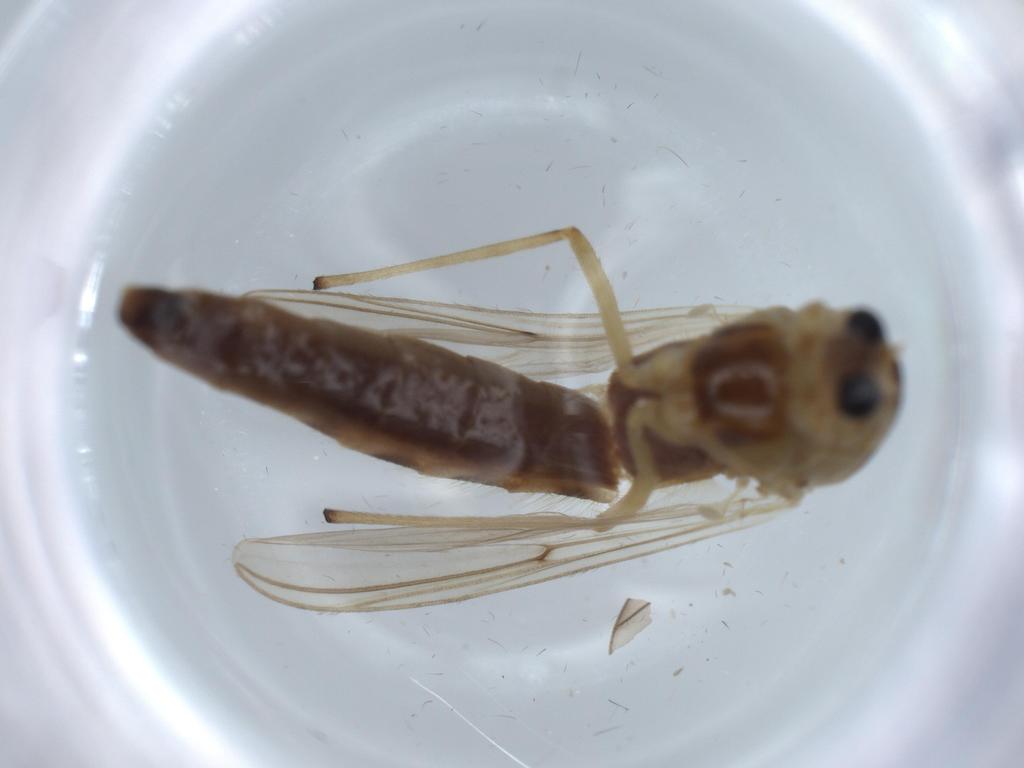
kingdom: Animalia
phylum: Arthropoda
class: Insecta
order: Diptera
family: Chironomidae
